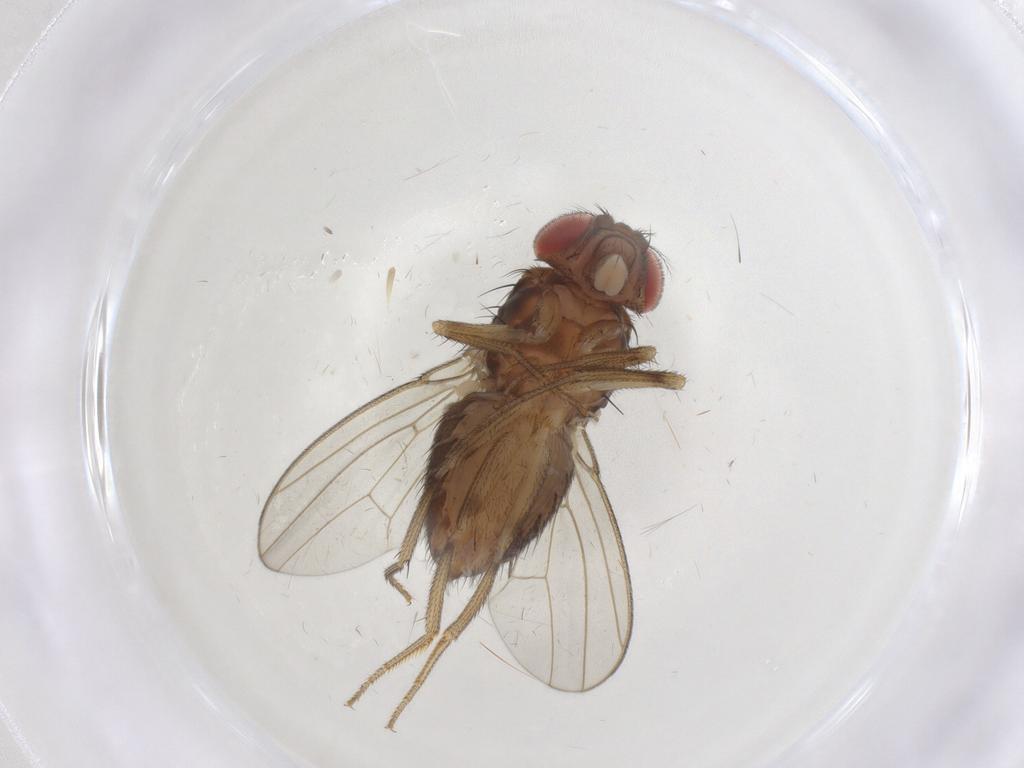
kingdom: Animalia
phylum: Arthropoda
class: Insecta
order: Diptera
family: Drosophilidae
